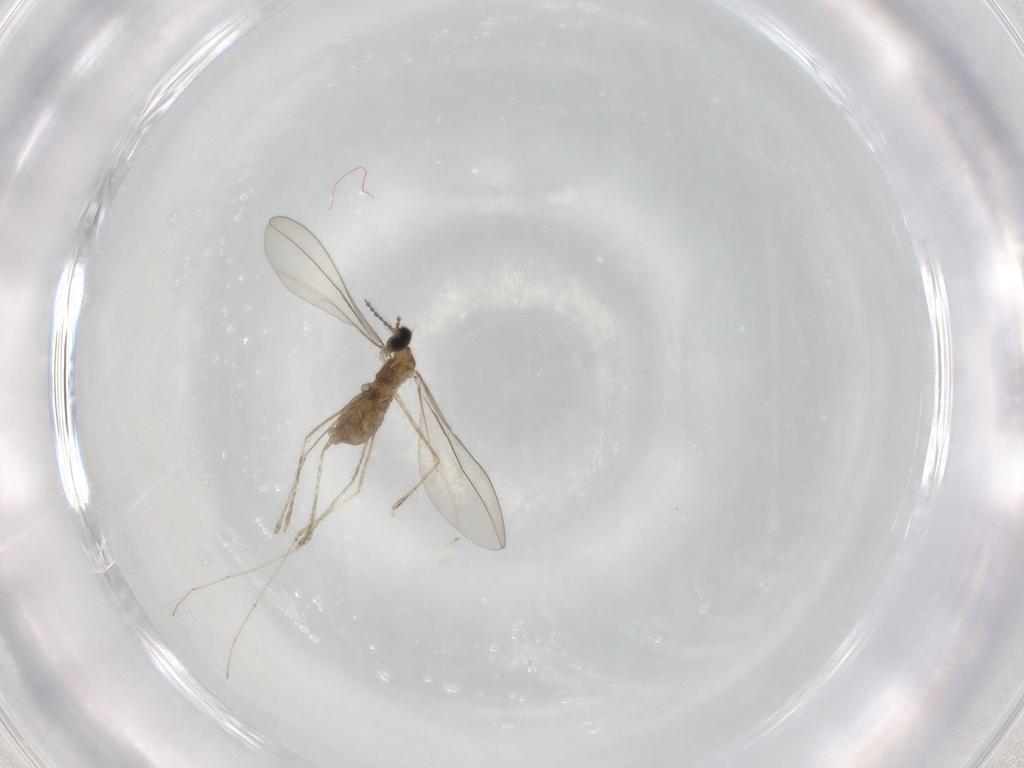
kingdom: Animalia
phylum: Arthropoda
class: Insecta
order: Diptera
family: Cecidomyiidae
